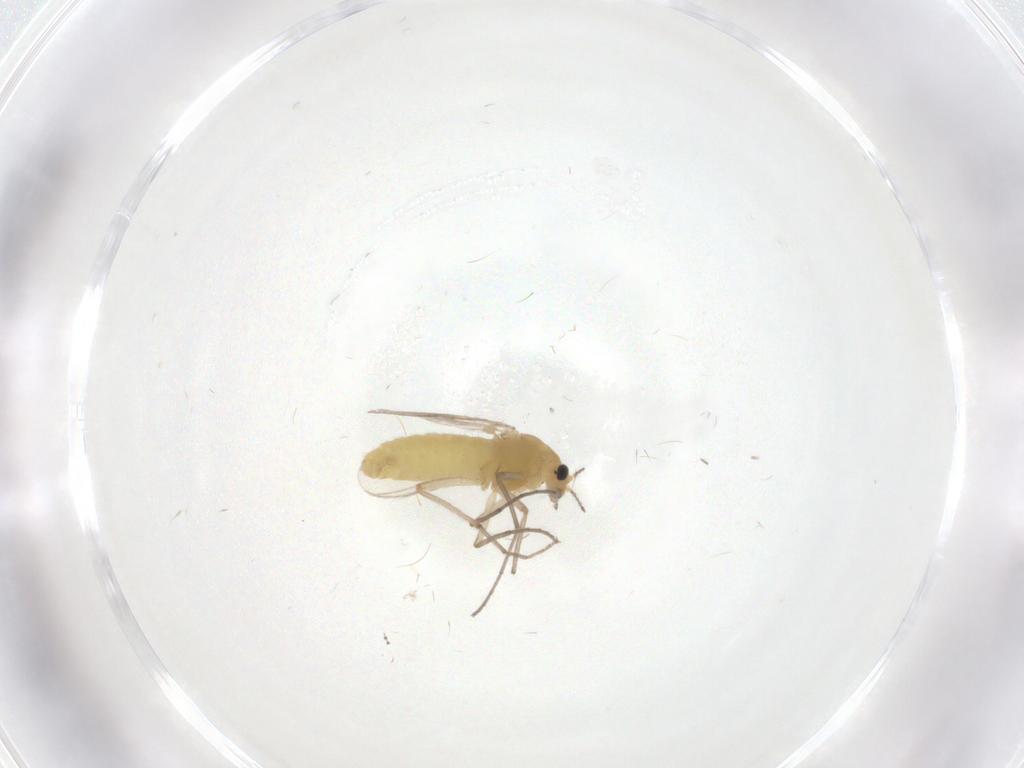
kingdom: Animalia
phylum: Arthropoda
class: Insecta
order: Diptera
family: Chironomidae
